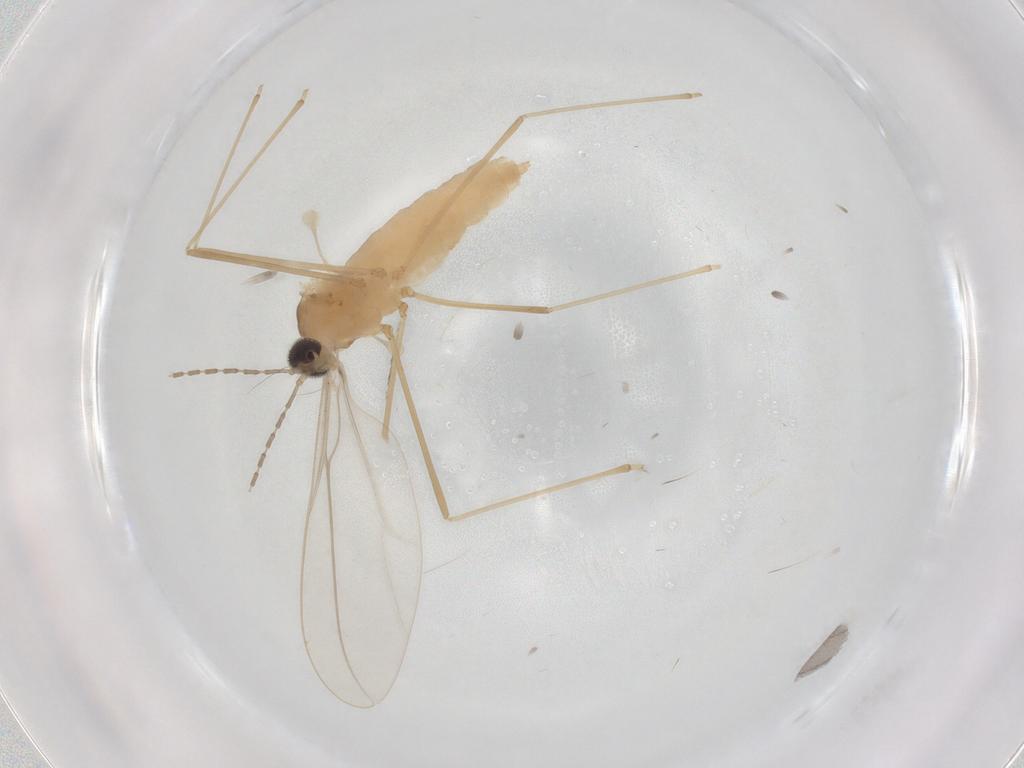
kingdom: Animalia
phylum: Arthropoda
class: Insecta
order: Diptera
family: Cecidomyiidae
